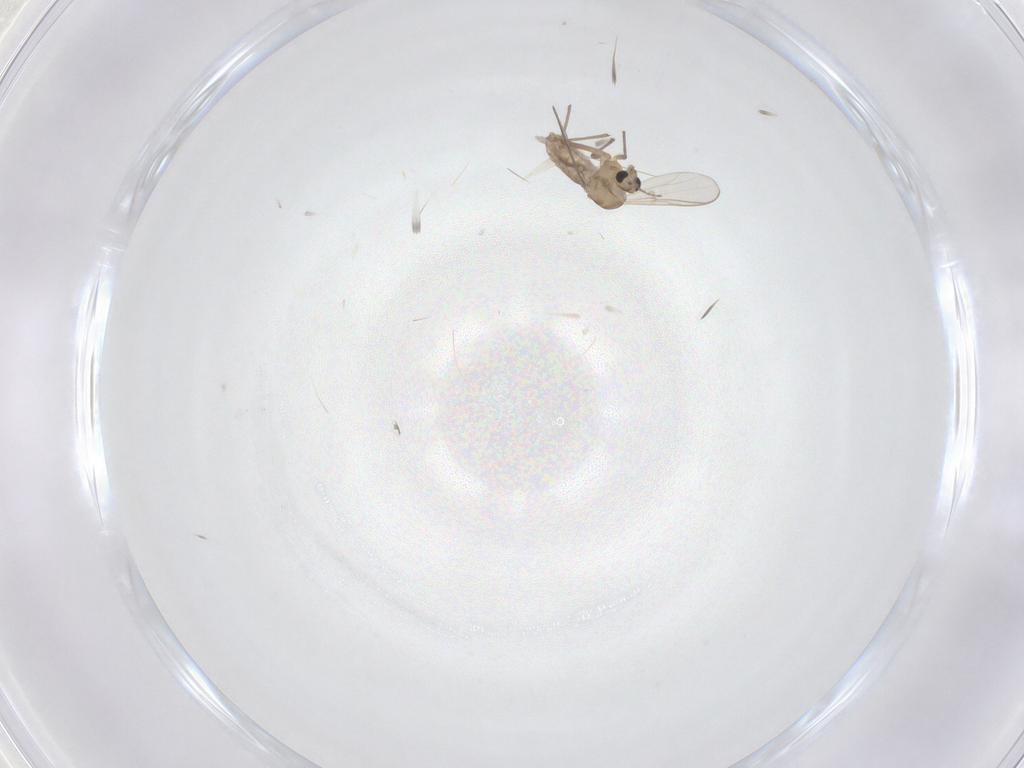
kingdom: Animalia
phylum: Arthropoda
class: Insecta
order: Diptera
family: Chironomidae
